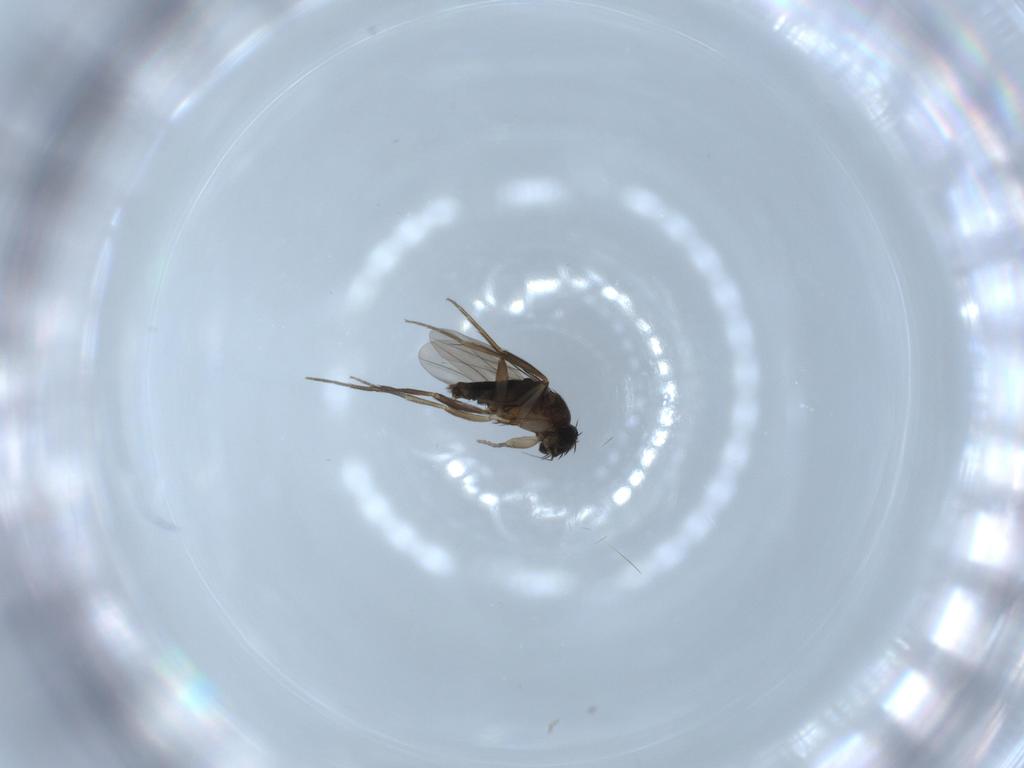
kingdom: Animalia
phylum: Arthropoda
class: Insecta
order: Diptera
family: Phoridae
